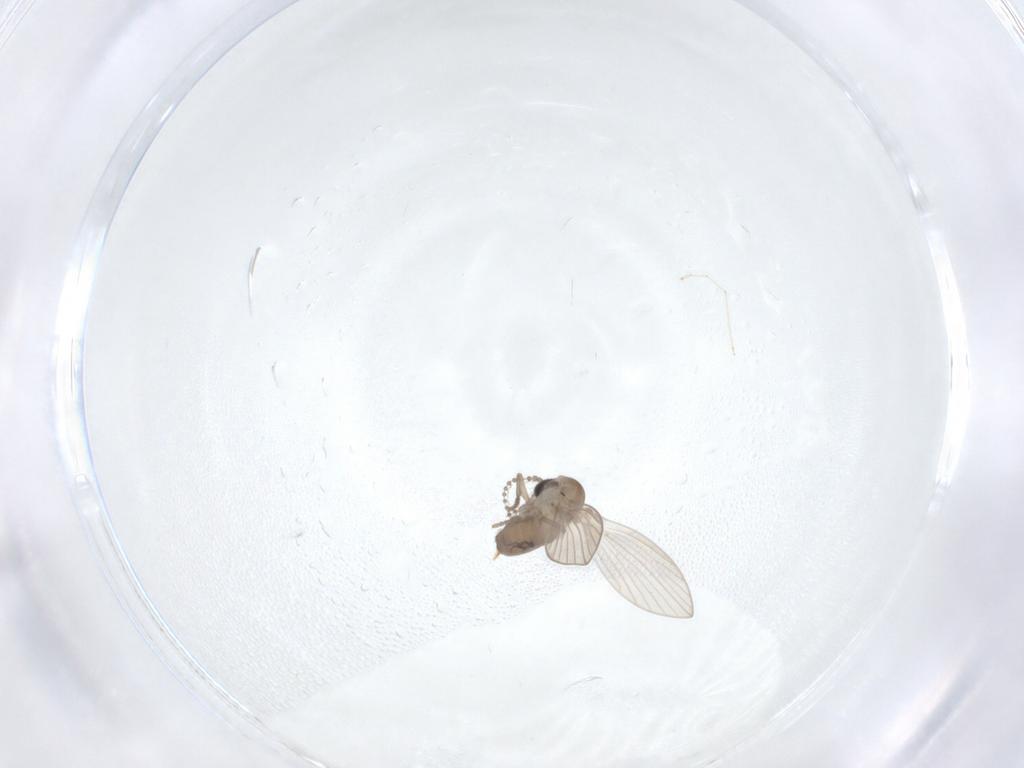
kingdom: Animalia
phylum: Arthropoda
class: Insecta
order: Diptera
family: Psychodidae
